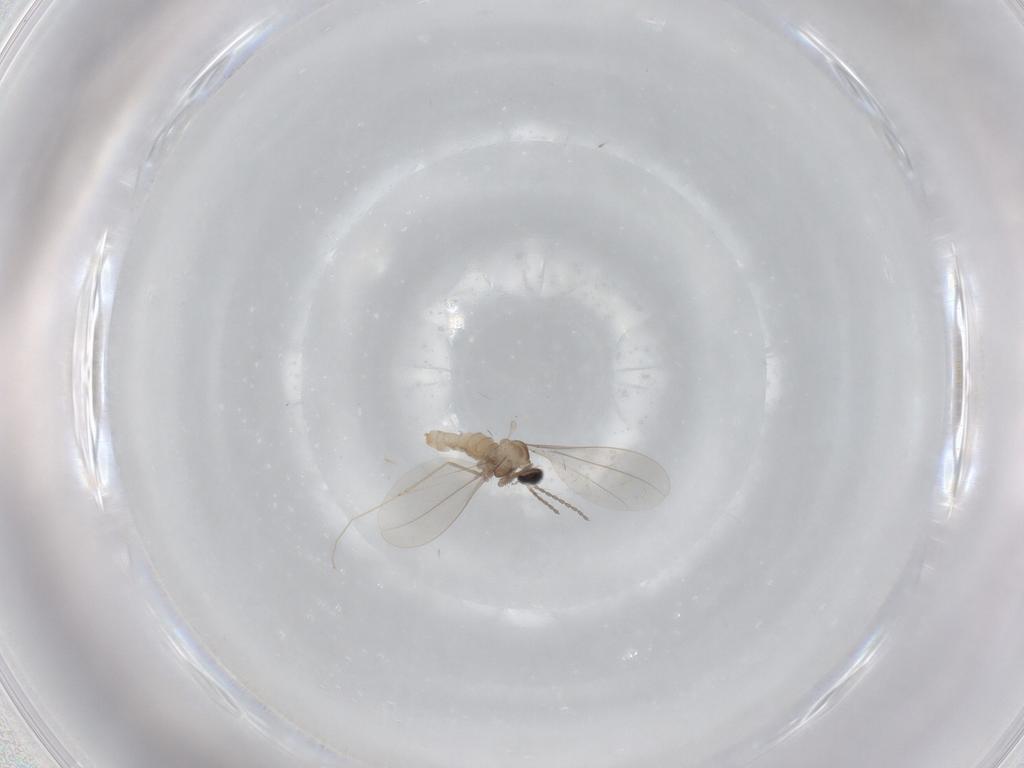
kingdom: Animalia
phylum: Arthropoda
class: Insecta
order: Diptera
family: Cecidomyiidae
